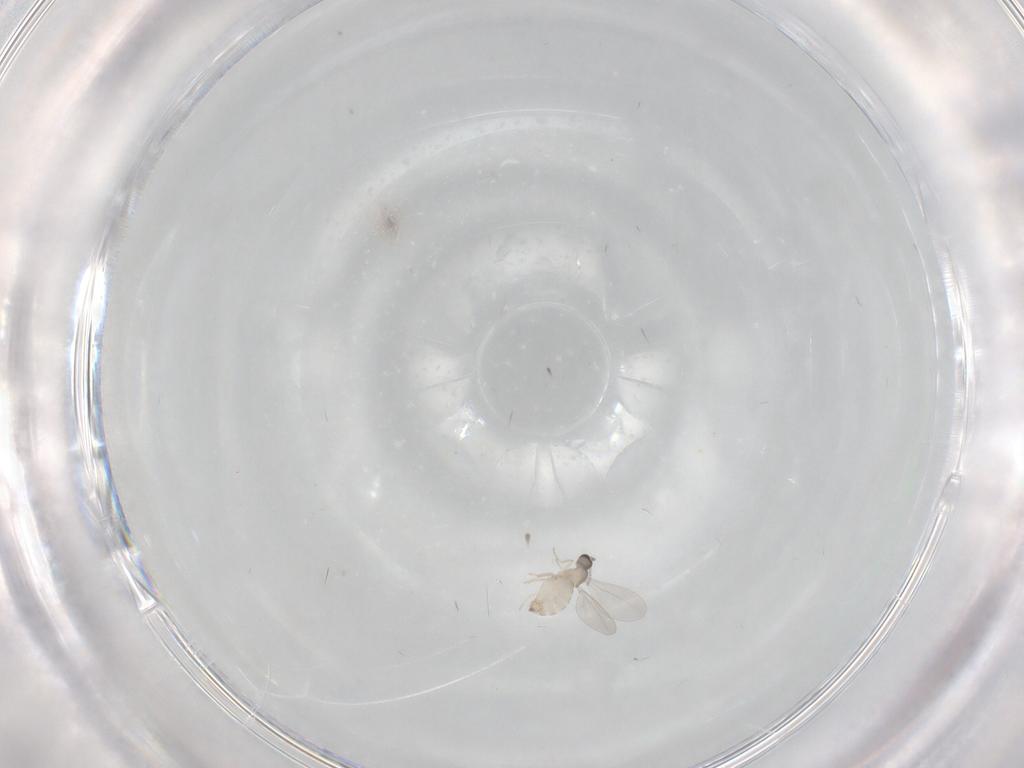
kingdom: Animalia
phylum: Arthropoda
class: Insecta
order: Diptera
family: Cecidomyiidae
